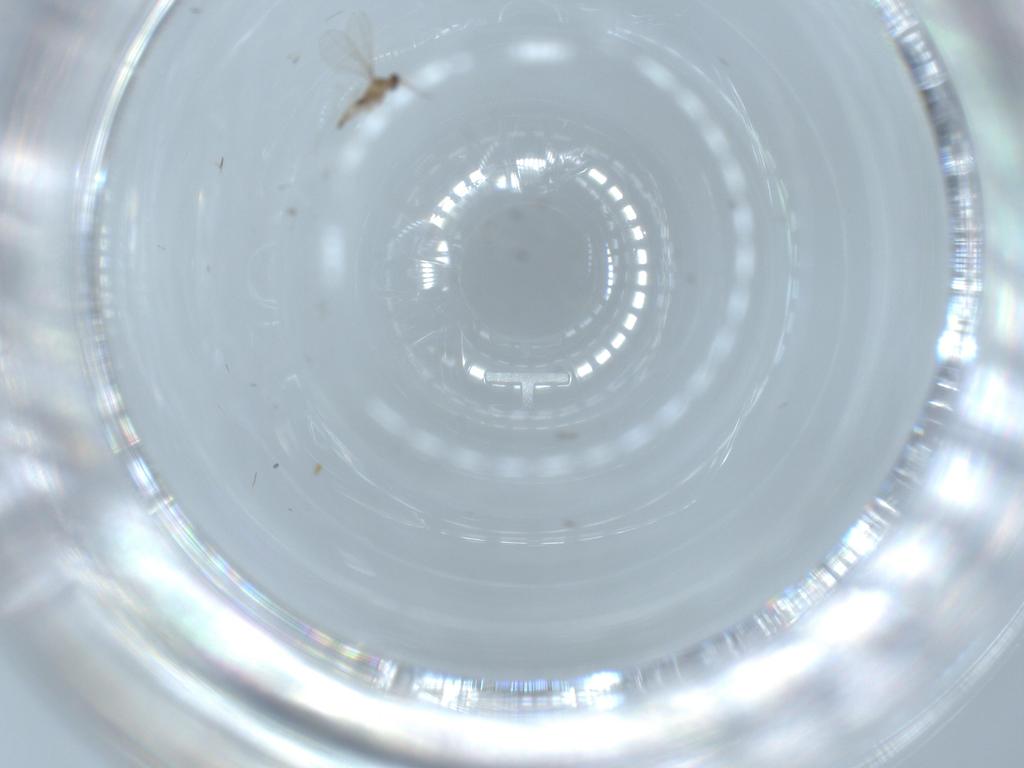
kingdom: Animalia
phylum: Arthropoda
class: Insecta
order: Diptera
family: Cecidomyiidae
